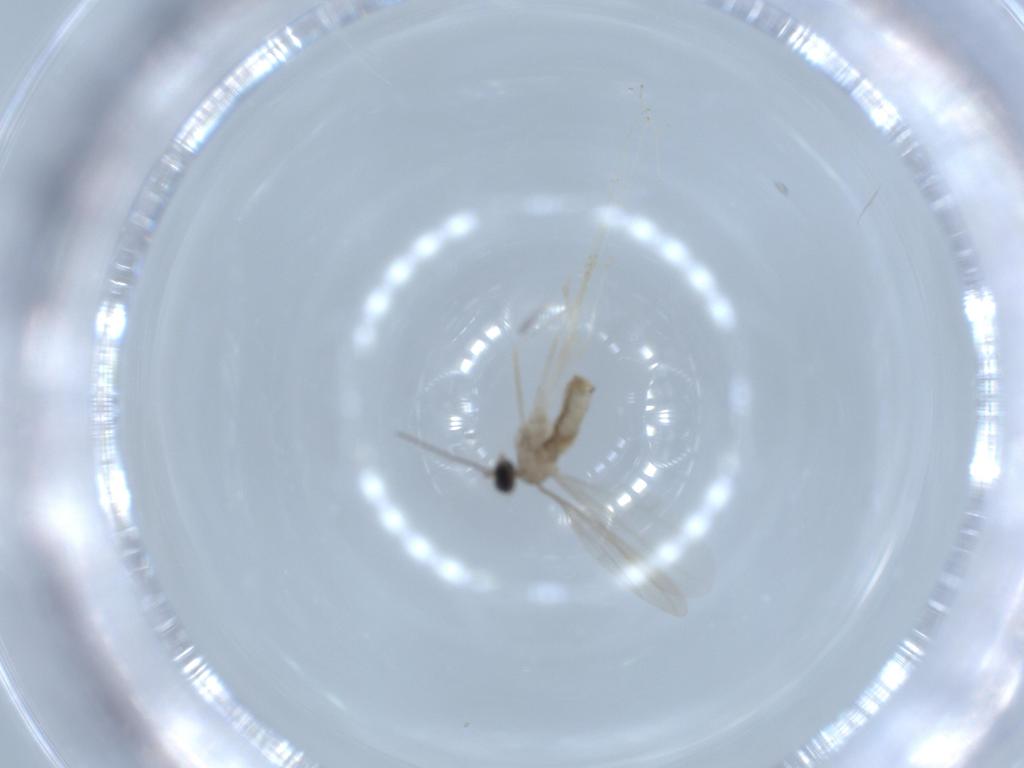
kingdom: Animalia
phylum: Arthropoda
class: Insecta
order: Diptera
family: Cecidomyiidae
